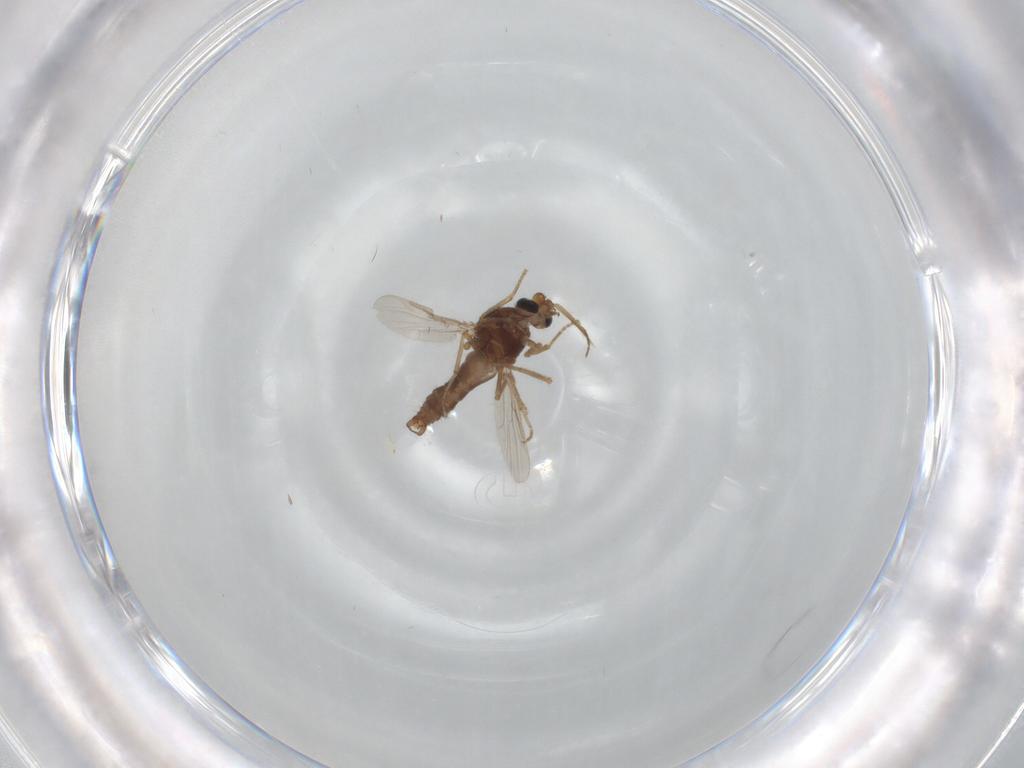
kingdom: Animalia
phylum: Arthropoda
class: Insecta
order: Diptera
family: Ceratopogonidae
